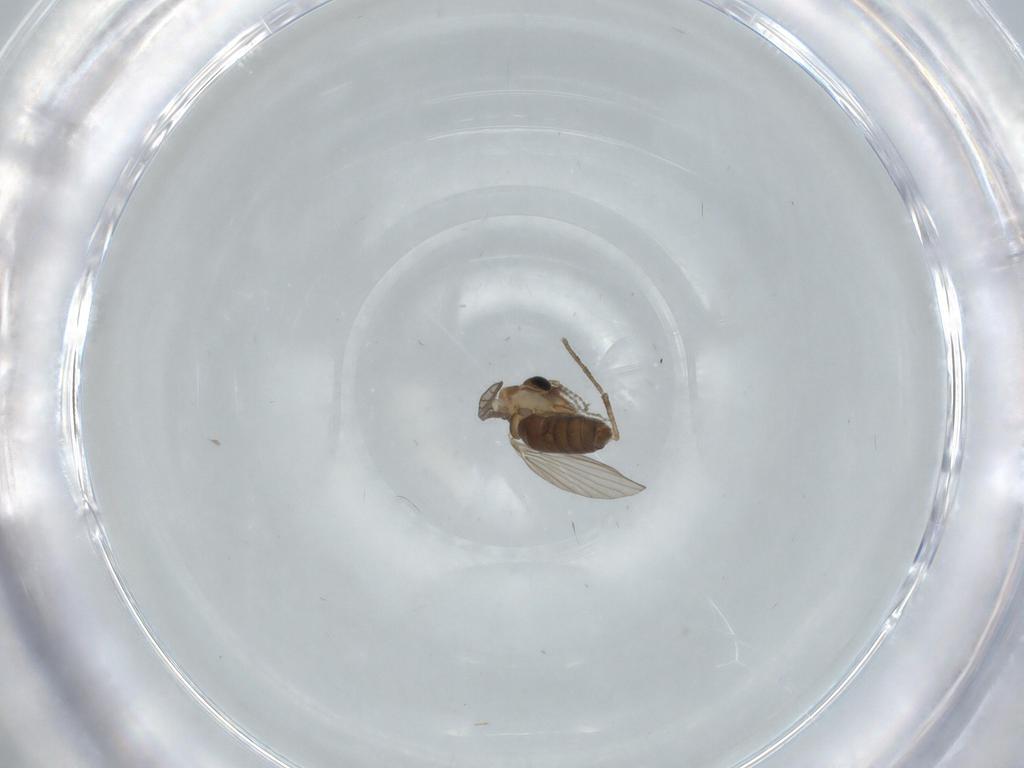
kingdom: Animalia
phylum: Arthropoda
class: Insecta
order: Diptera
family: Psychodidae
